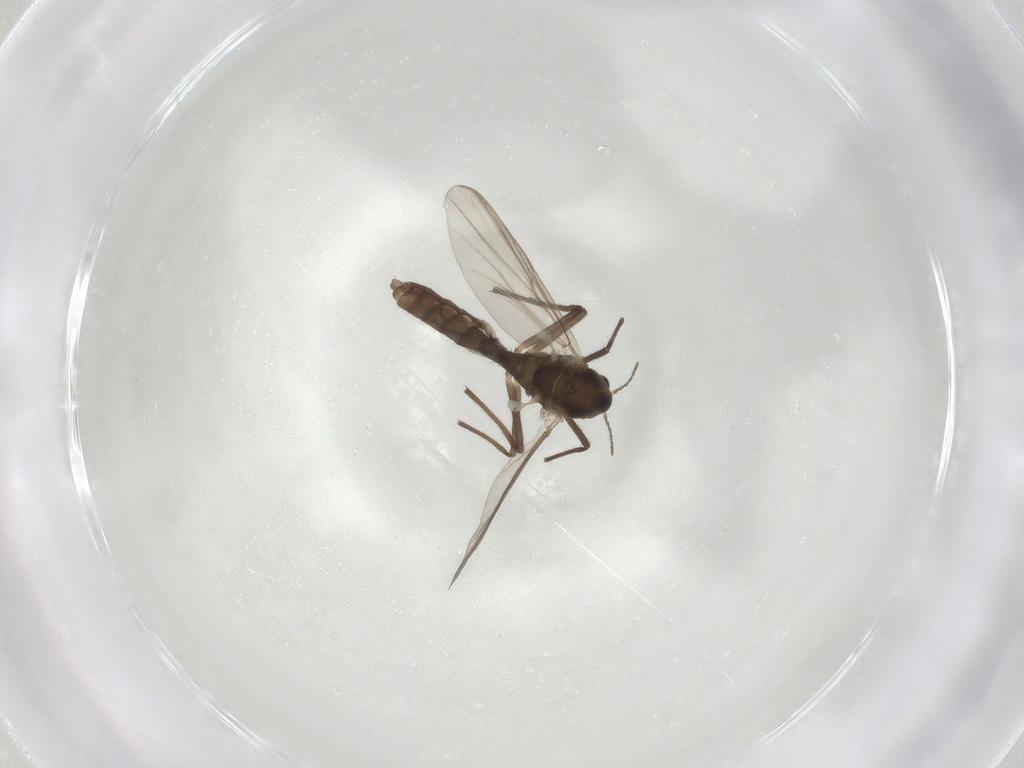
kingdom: Animalia
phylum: Arthropoda
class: Insecta
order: Diptera
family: Chironomidae
